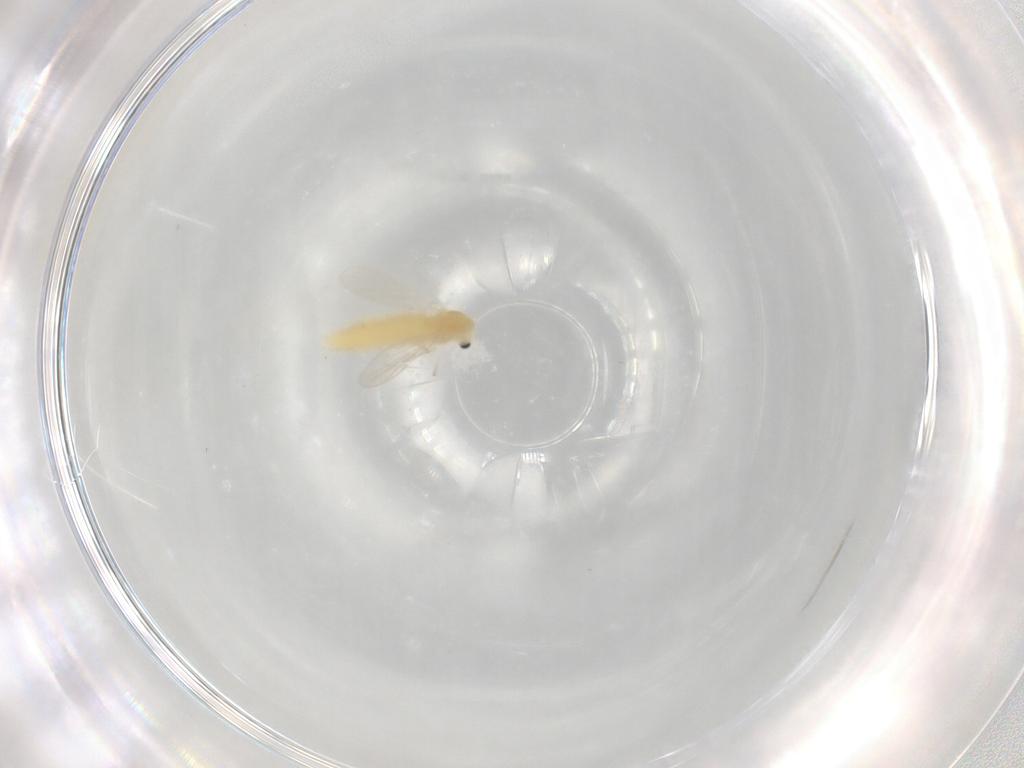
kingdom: Animalia
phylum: Arthropoda
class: Insecta
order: Diptera
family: Chironomidae
